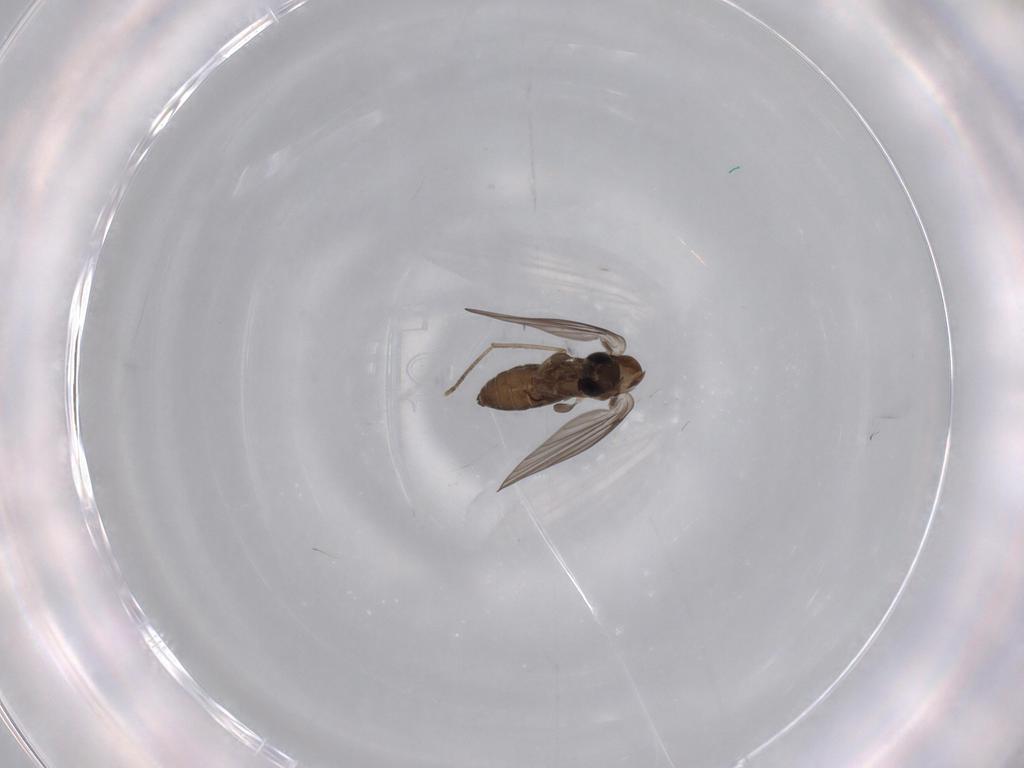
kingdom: Animalia
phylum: Arthropoda
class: Insecta
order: Diptera
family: Psychodidae
